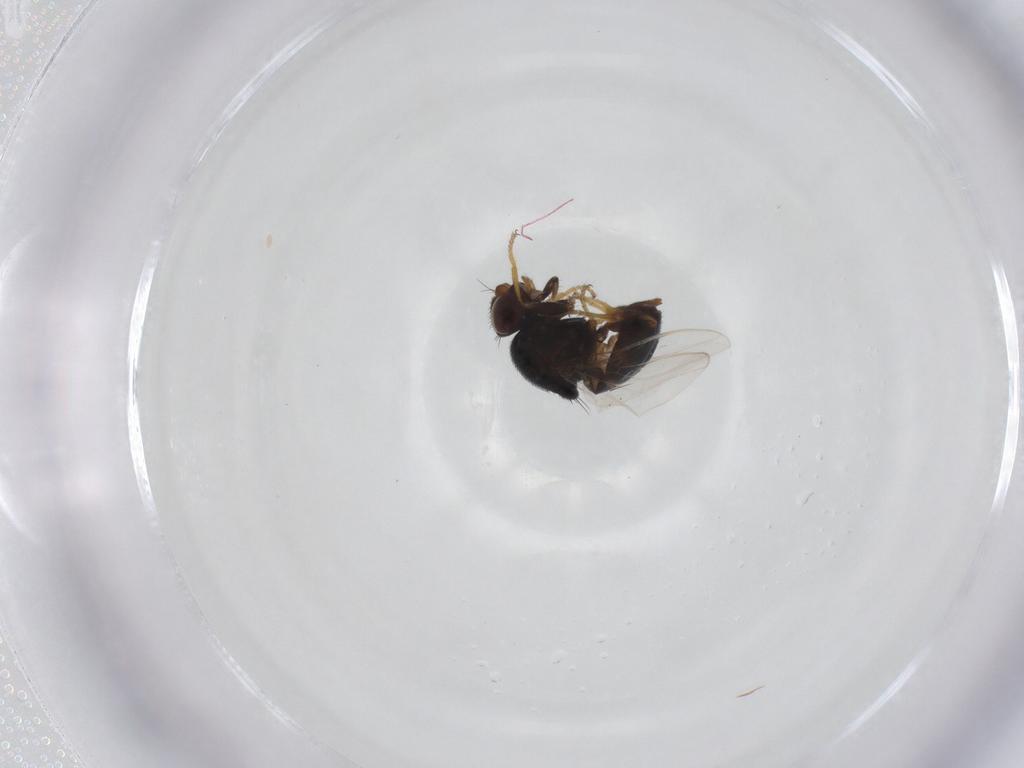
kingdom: Animalia
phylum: Arthropoda
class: Insecta
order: Diptera
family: Chloropidae
